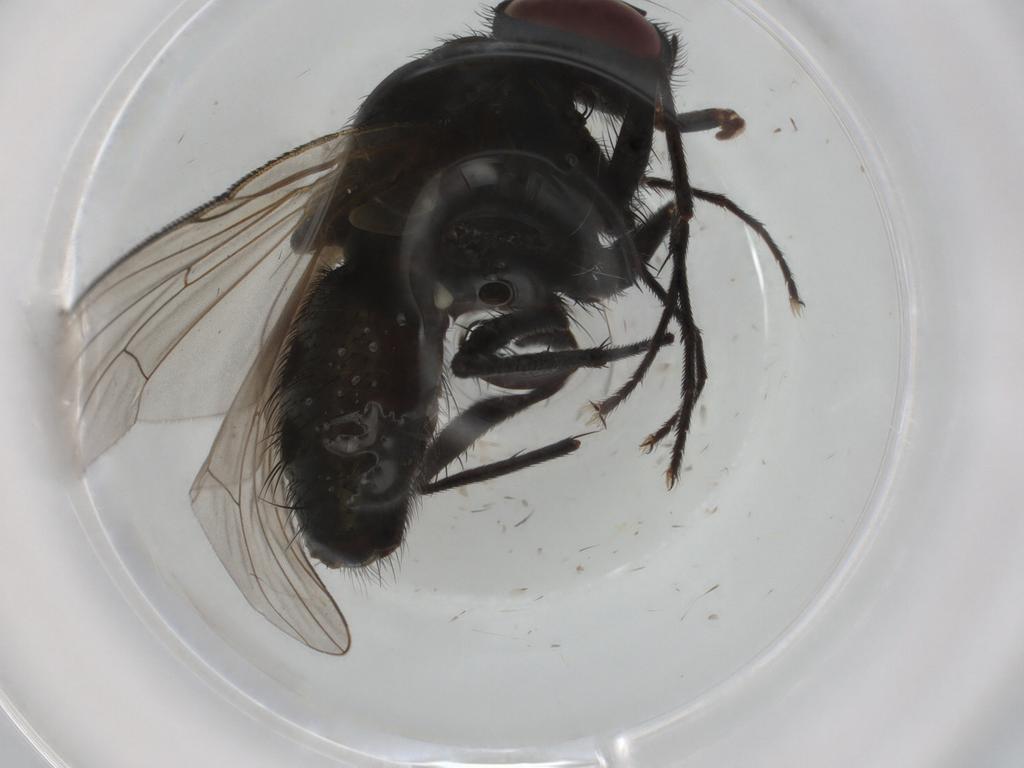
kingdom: Animalia
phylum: Arthropoda
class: Insecta
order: Diptera
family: Muscidae
